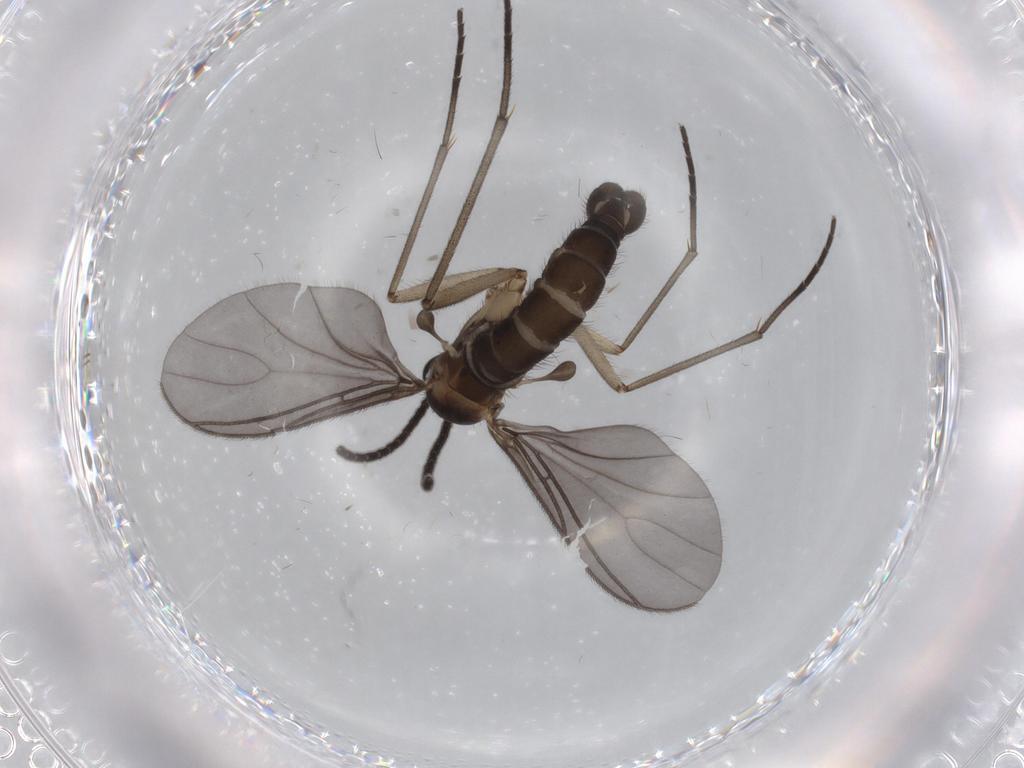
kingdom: Animalia
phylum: Arthropoda
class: Insecta
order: Diptera
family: Sciaridae
